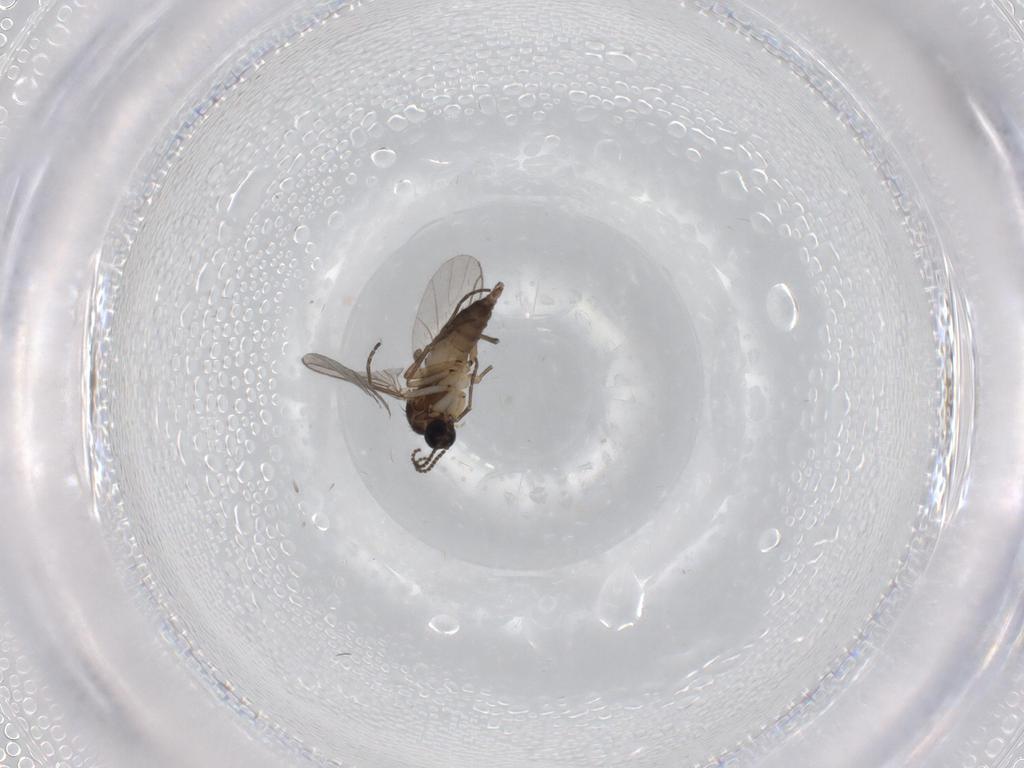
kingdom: Animalia
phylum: Arthropoda
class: Insecta
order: Diptera
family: Sciaridae
